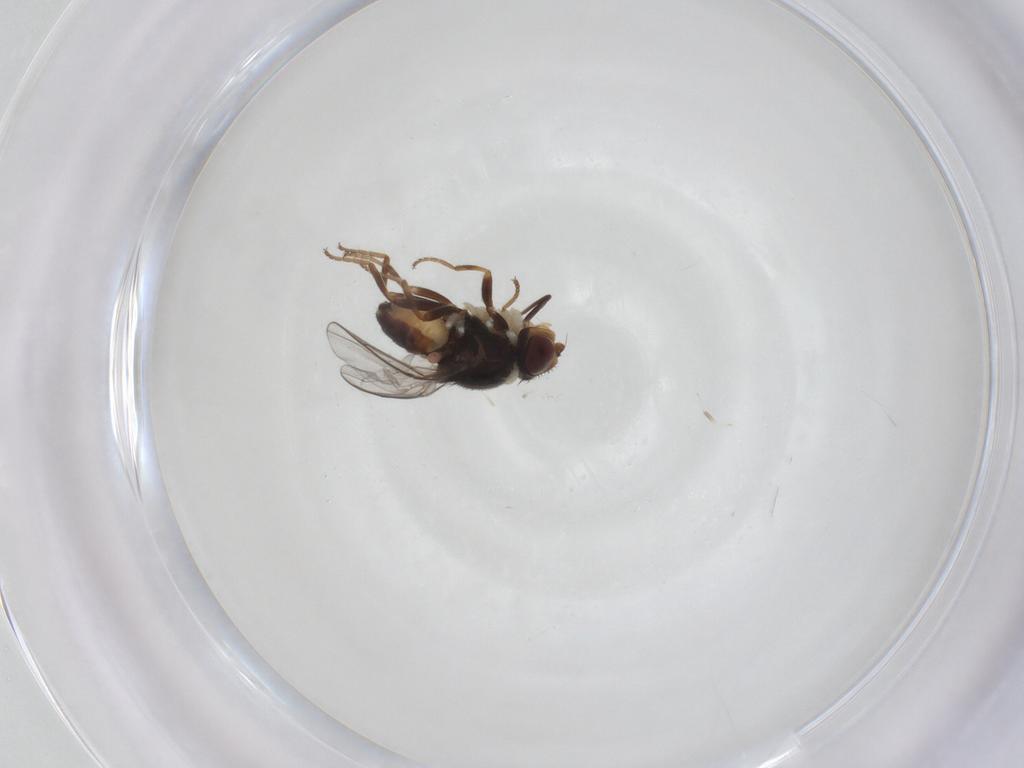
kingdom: Animalia
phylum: Arthropoda
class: Insecta
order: Diptera
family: Chloropidae
